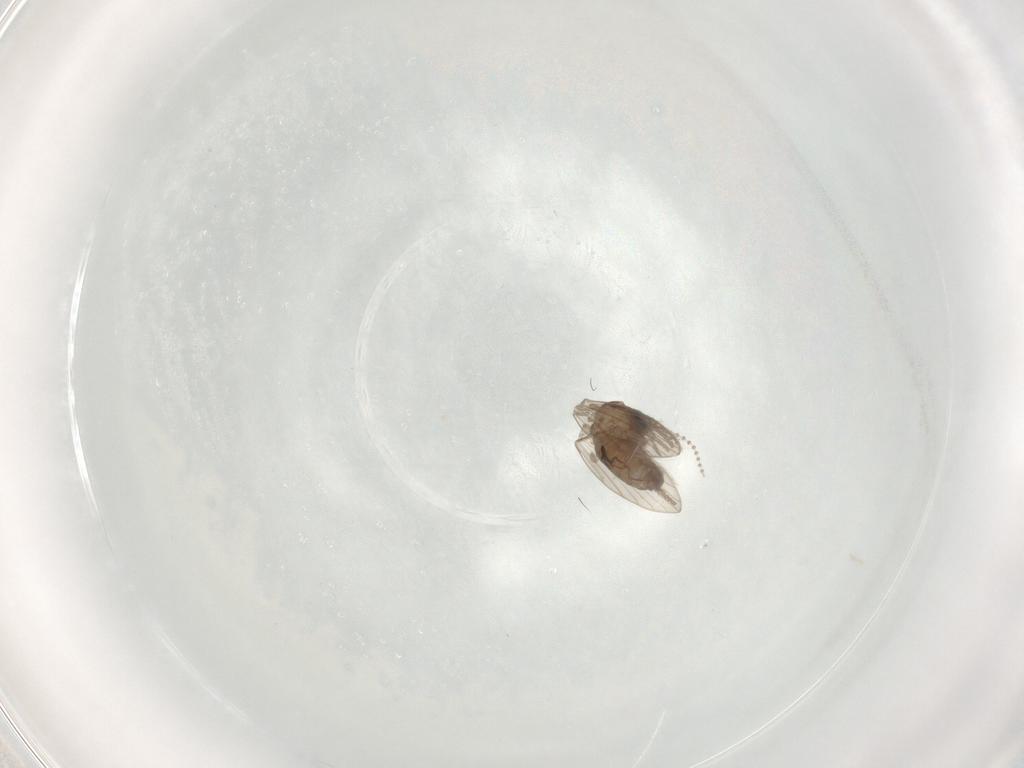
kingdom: Animalia
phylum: Arthropoda
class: Insecta
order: Diptera
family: Sciaridae
